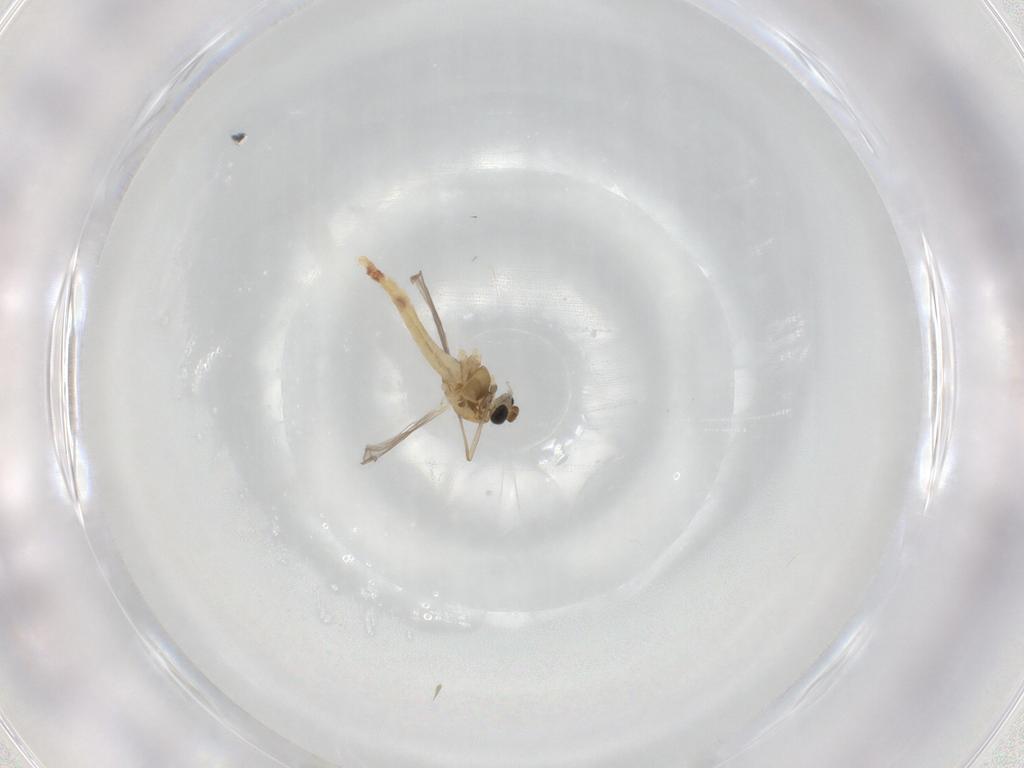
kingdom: Animalia
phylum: Arthropoda
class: Insecta
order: Diptera
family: Chironomidae
